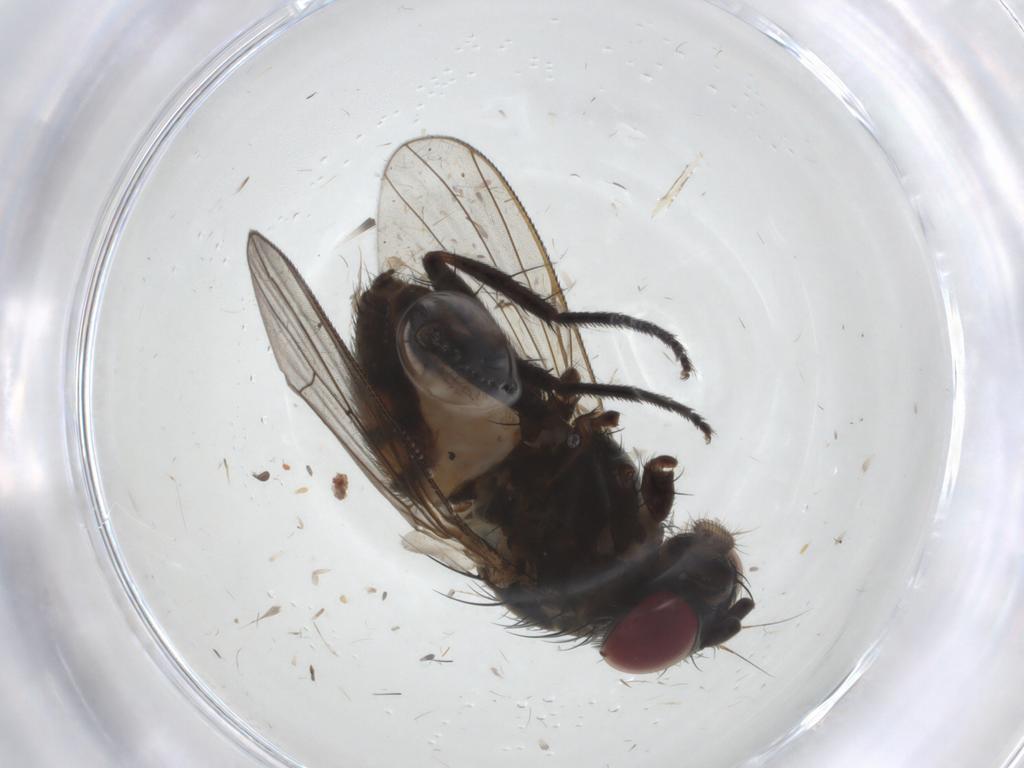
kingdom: Animalia
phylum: Arthropoda
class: Insecta
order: Diptera
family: Fannia
